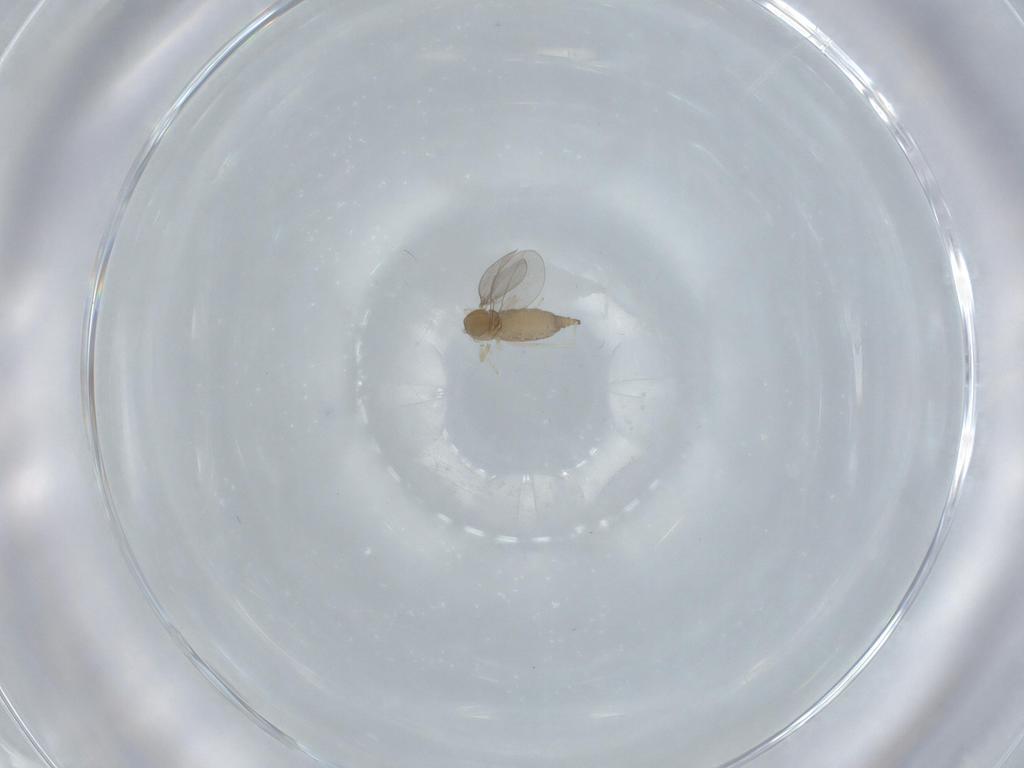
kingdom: Animalia
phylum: Arthropoda
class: Insecta
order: Diptera
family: Cecidomyiidae
